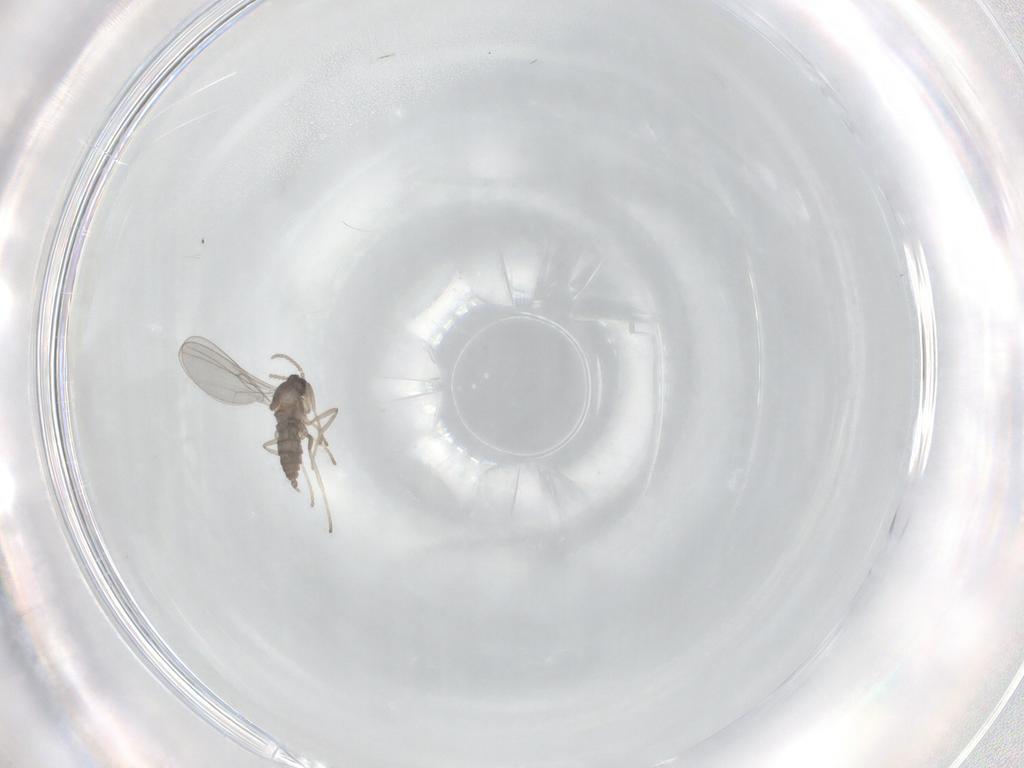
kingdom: Animalia
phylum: Arthropoda
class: Insecta
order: Diptera
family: Cecidomyiidae
